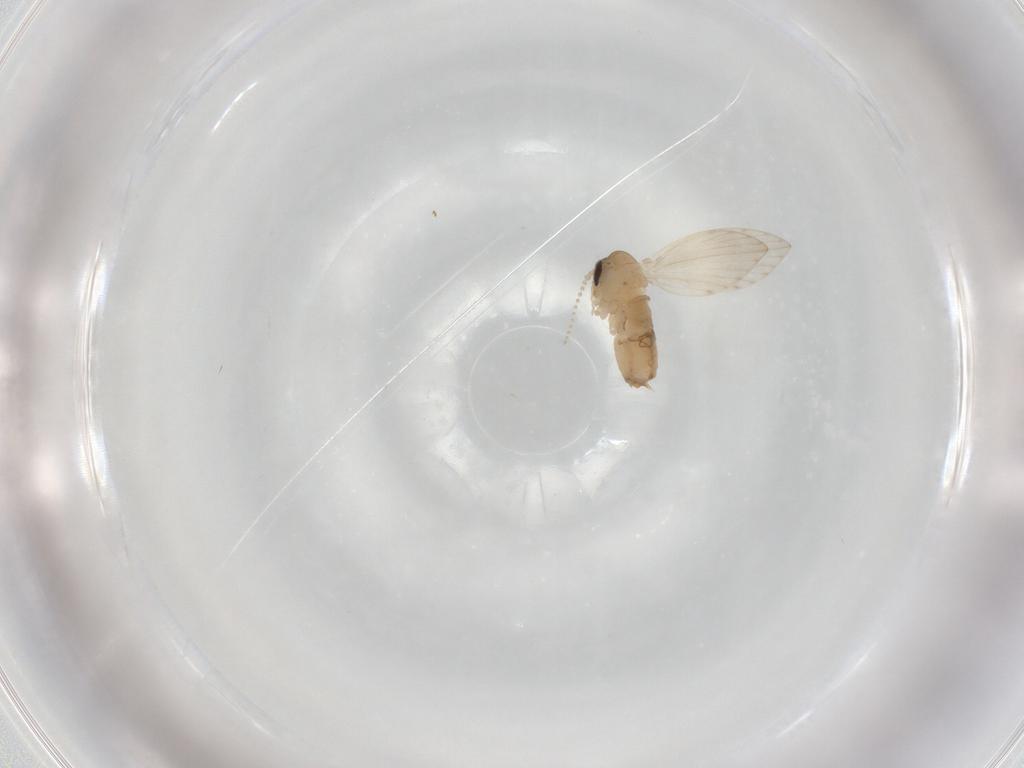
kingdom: Animalia
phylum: Arthropoda
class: Insecta
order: Diptera
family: Psychodidae
